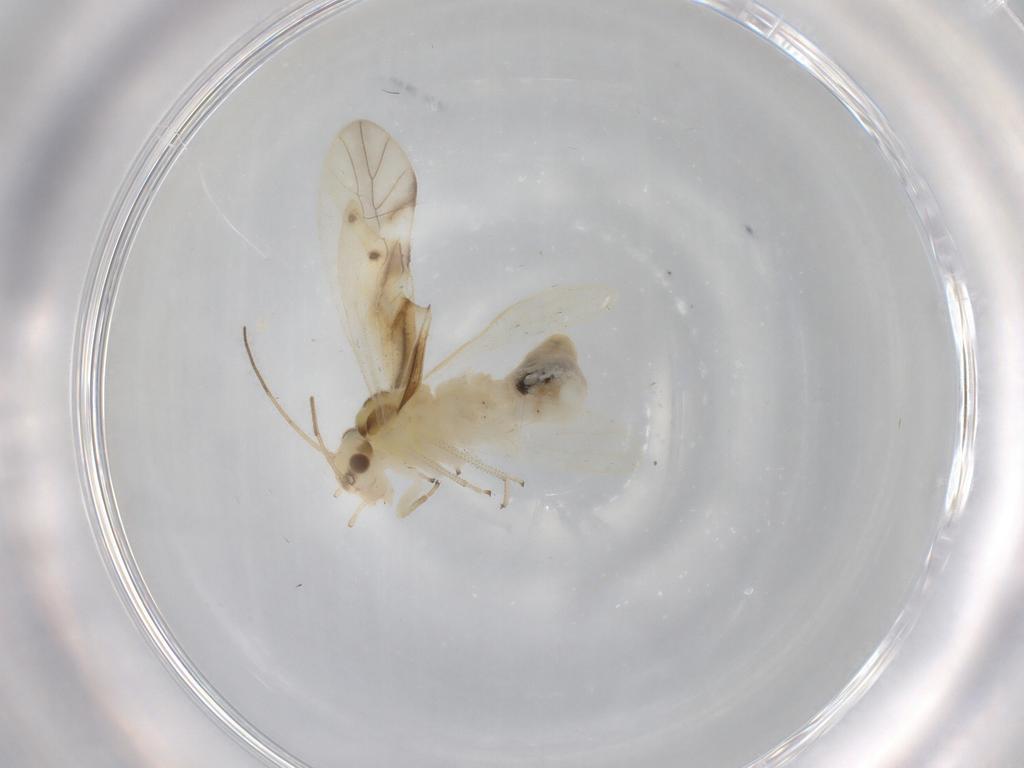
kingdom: Animalia
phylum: Arthropoda
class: Insecta
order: Psocodea
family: Caeciliusidae
